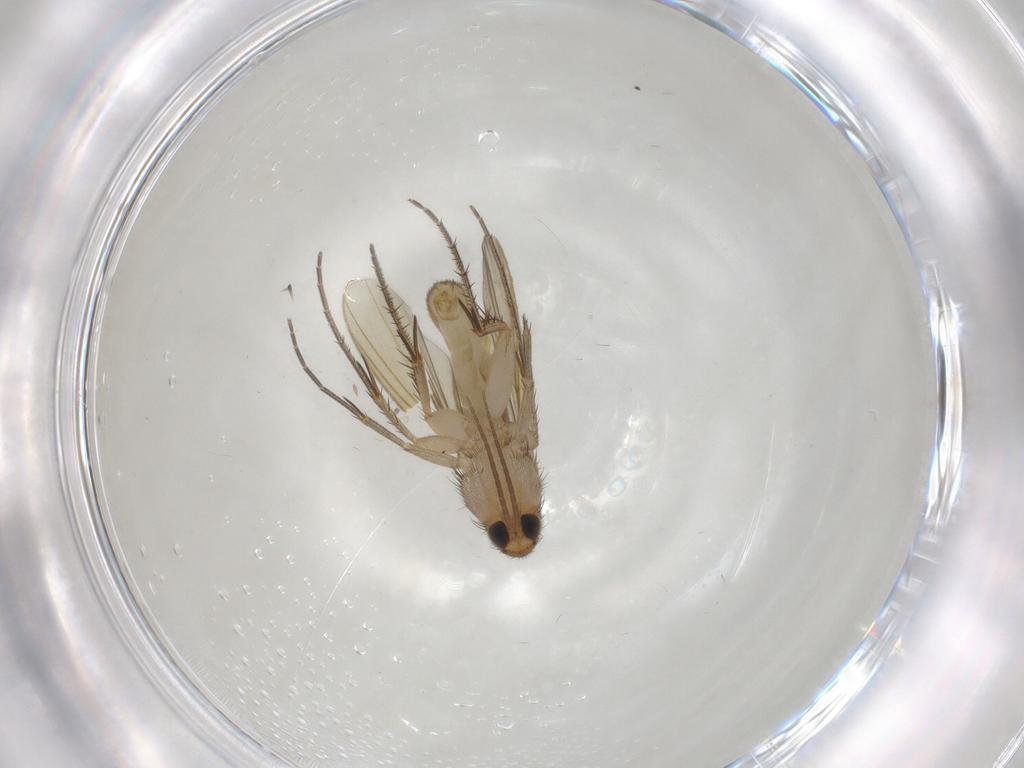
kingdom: Animalia
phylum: Arthropoda
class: Insecta
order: Diptera
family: Mycetophilidae
